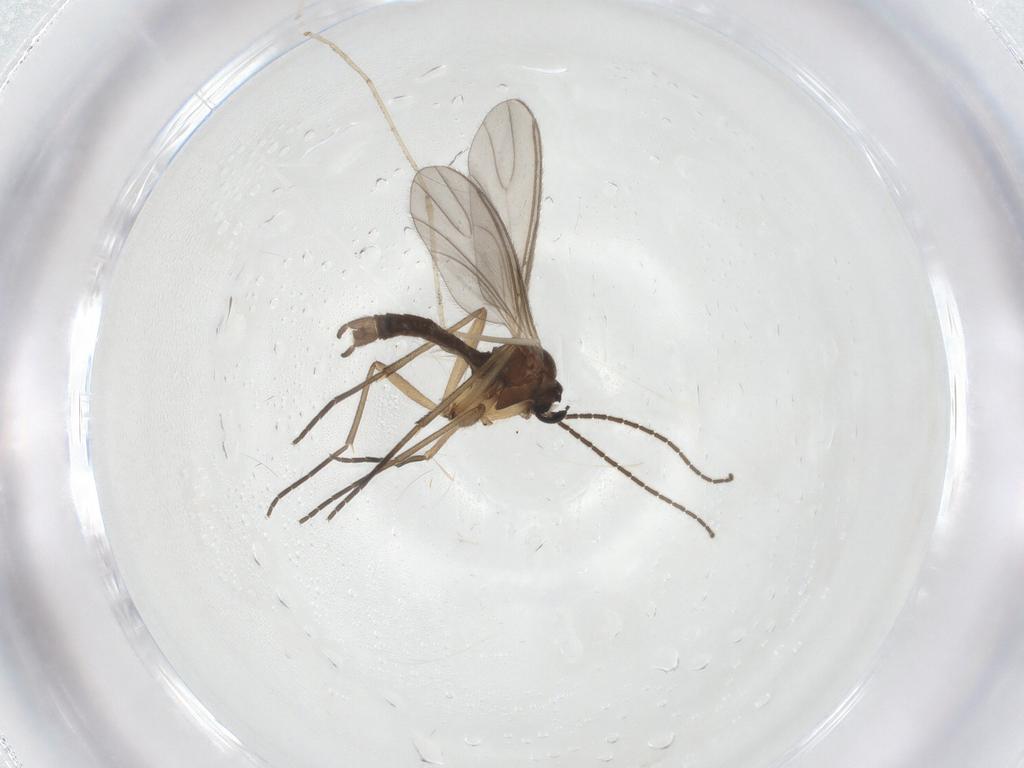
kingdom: Animalia
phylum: Arthropoda
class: Insecta
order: Diptera
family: Sciaridae
